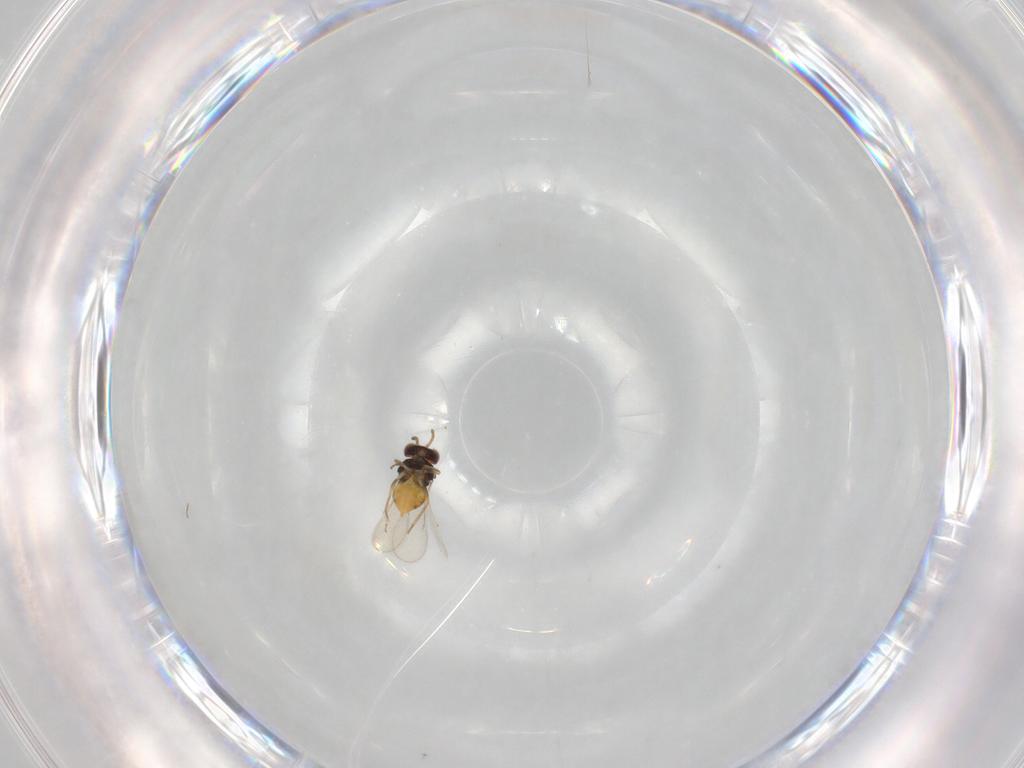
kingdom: Animalia
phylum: Arthropoda
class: Insecta
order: Hymenoptera
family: Aphelinidae
